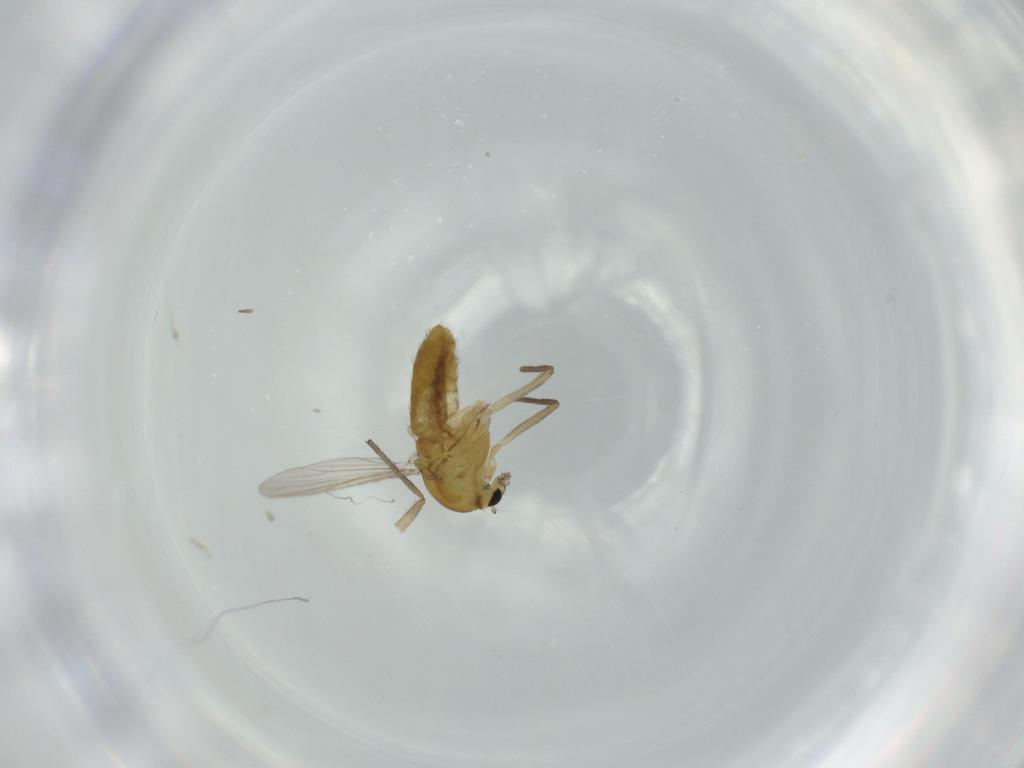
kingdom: Animalia
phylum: Arthropoda
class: Insecta
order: Diptera
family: Chironomidae
